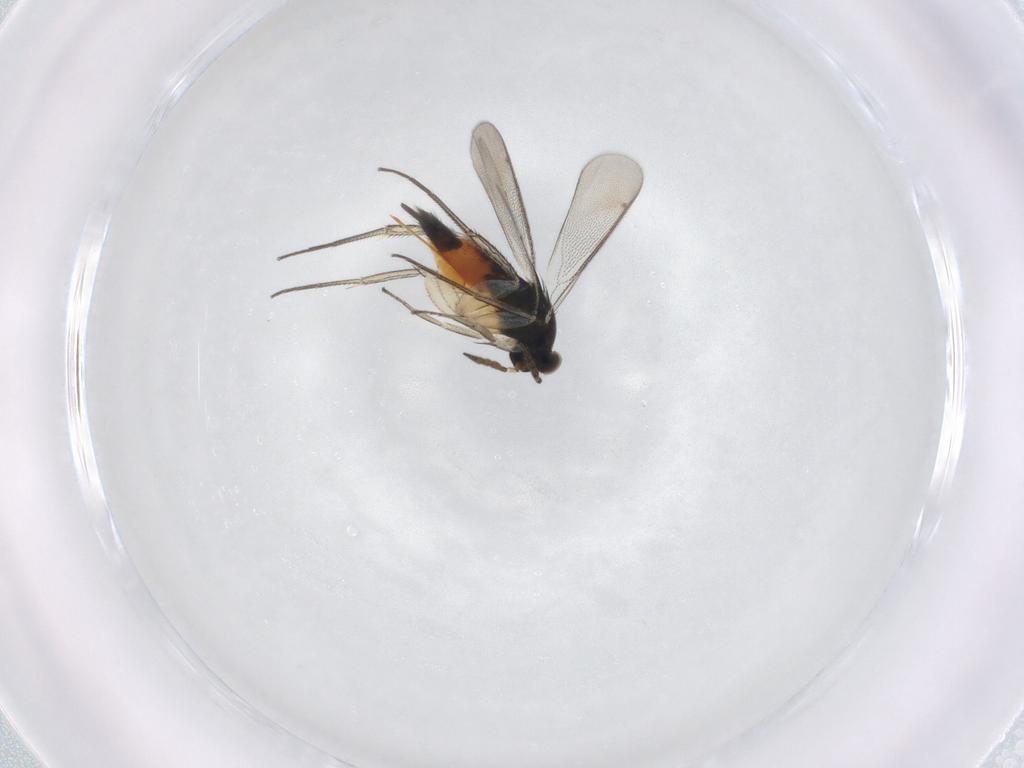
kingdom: Animalia
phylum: Arthropoda
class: Insecta
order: Hymenoptera
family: Eulophidae
